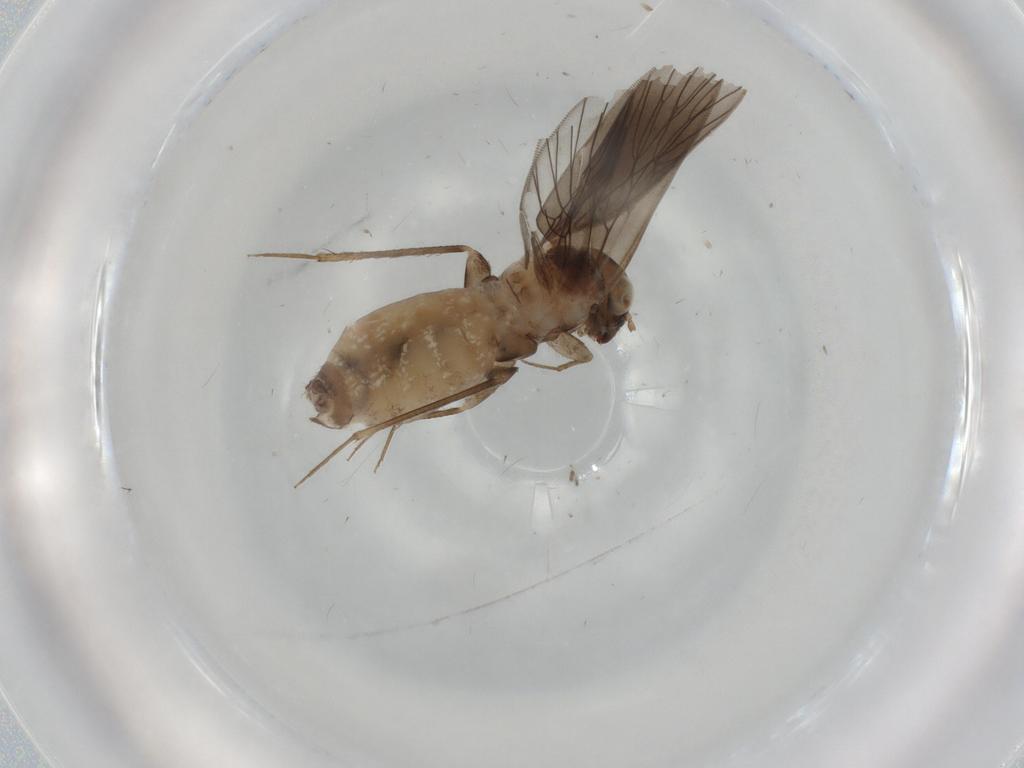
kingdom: Animalia
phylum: Arthropoda
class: Insecta
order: Psocodea
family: Lepidopsocidae
